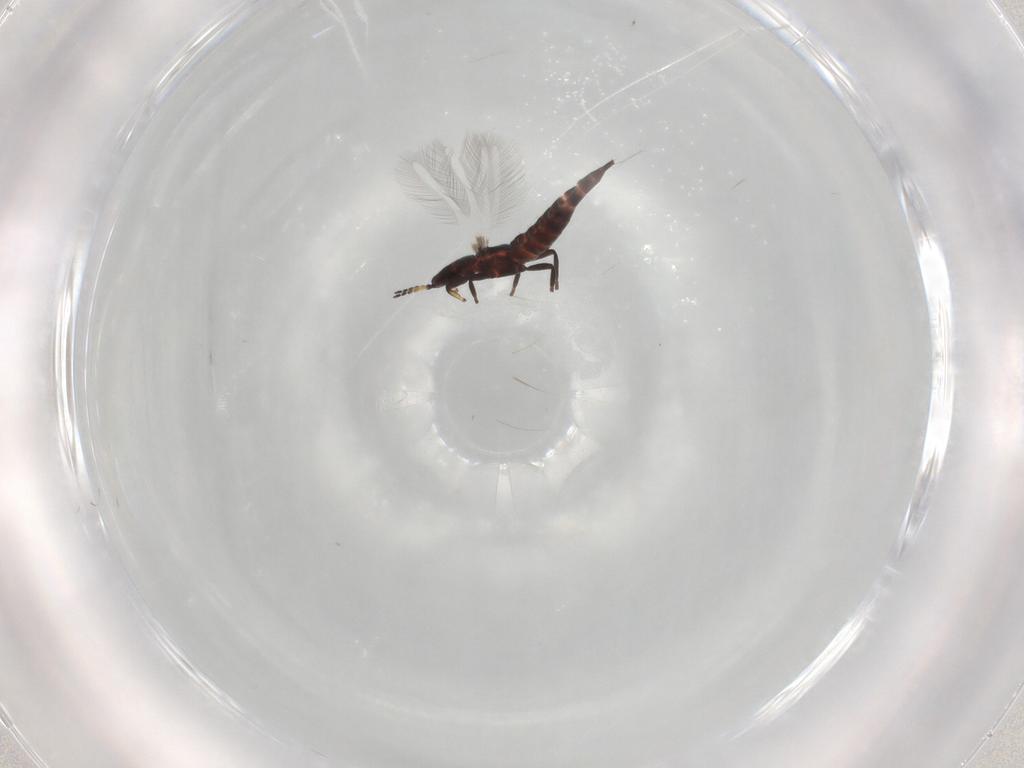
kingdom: Animalia
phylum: Arthropoda
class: Insecta
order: Thysanoptera
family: Phlaeothripidae
